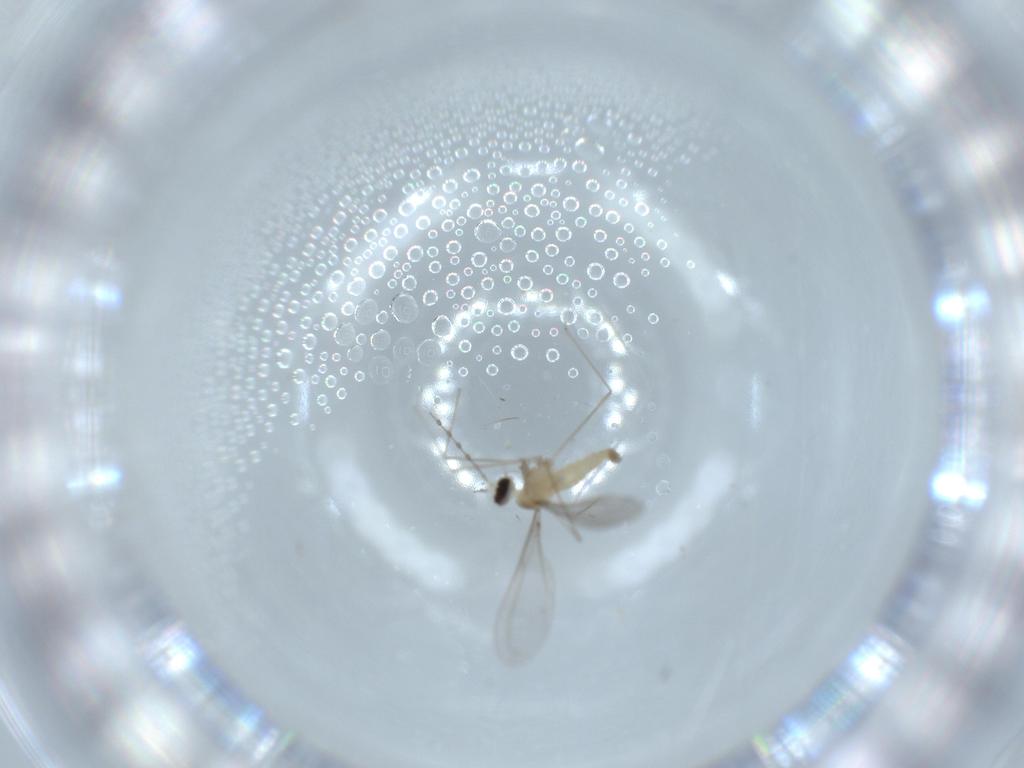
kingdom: Animalia
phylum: Arthropoda
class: Insecta
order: Diptera
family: Cecidomyiidae
